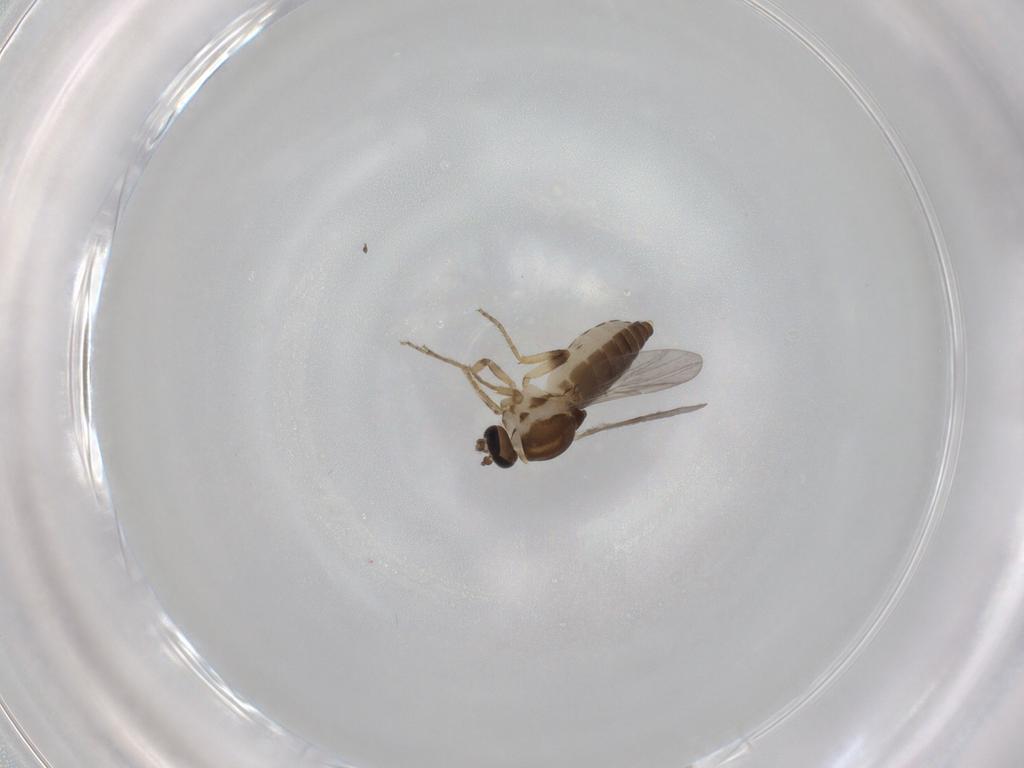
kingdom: Animalia
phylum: Arthropoda
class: Insecta
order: Diptera
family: Ceratopogonidae
